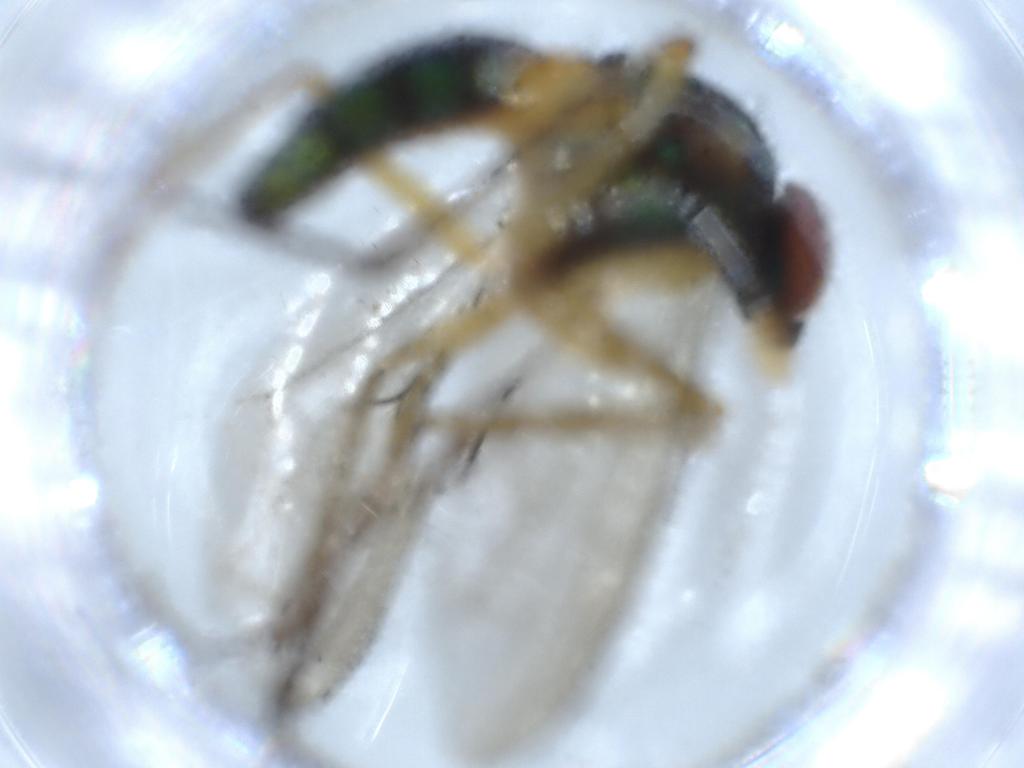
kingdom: Animalia
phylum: Arthropoda
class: Insecta
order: Diptera
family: Dolichopodidae
